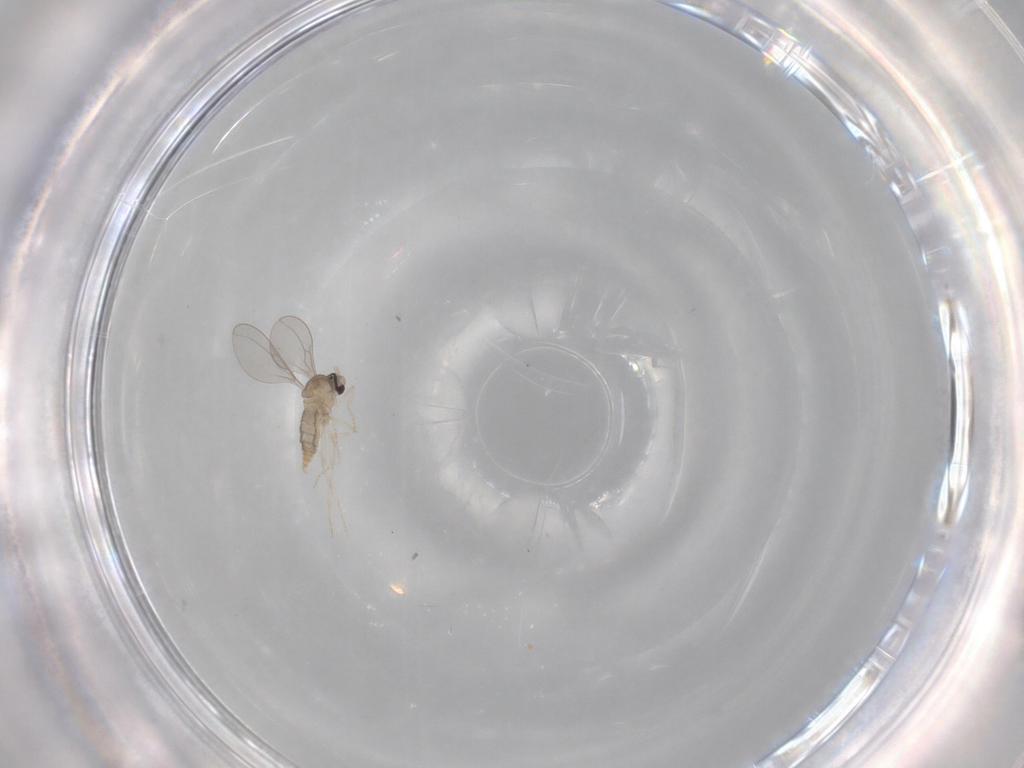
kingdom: Animalia
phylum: Arthropoda
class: Insecta
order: Diptera
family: Cecidomyiidae
